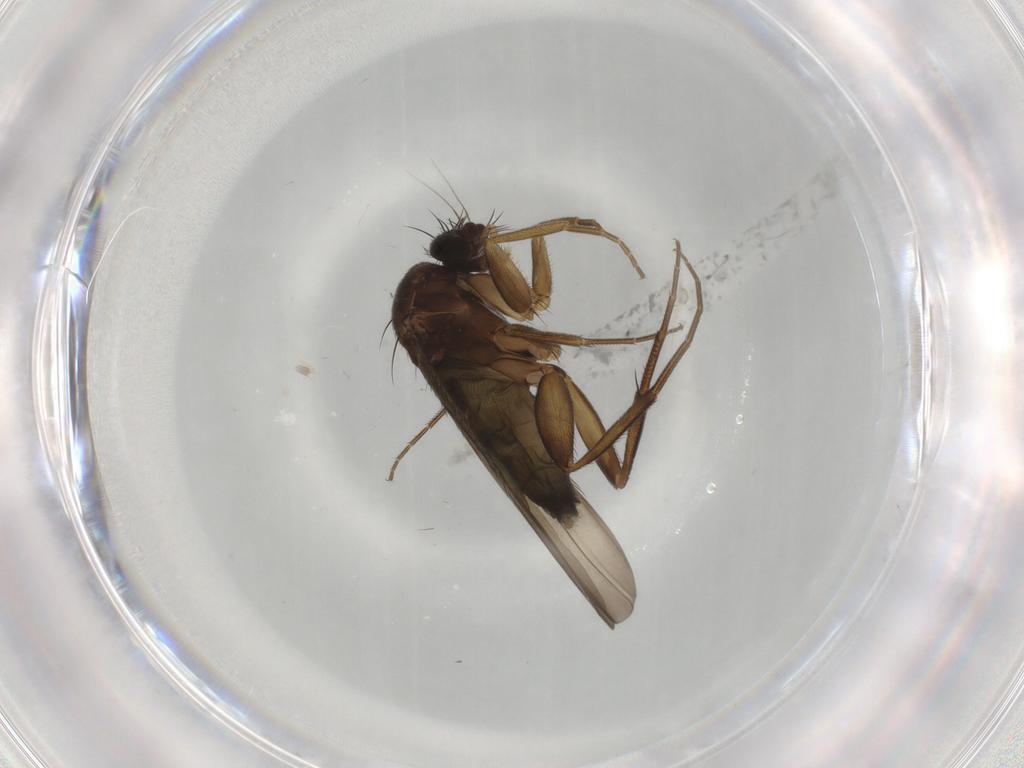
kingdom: Animalia
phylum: Arthropoda
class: Insecta
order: Diptera
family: Phoridae
